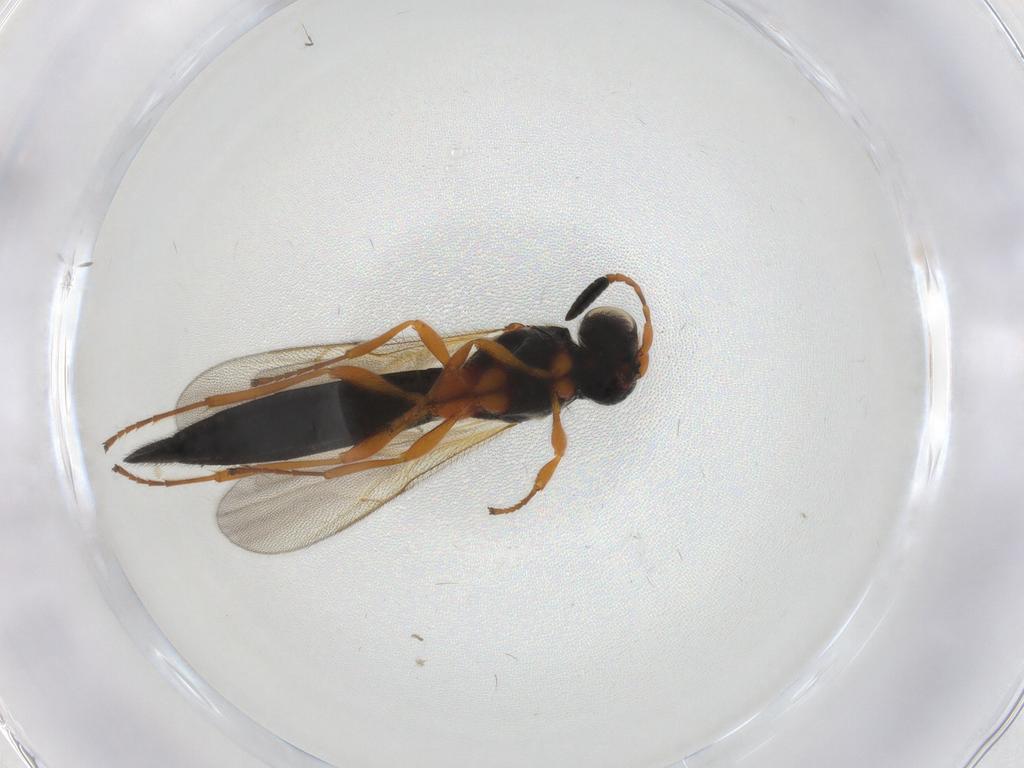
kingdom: Animalia
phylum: Arthropoda
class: Insecta
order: Hymenoptera
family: Scelionidae
